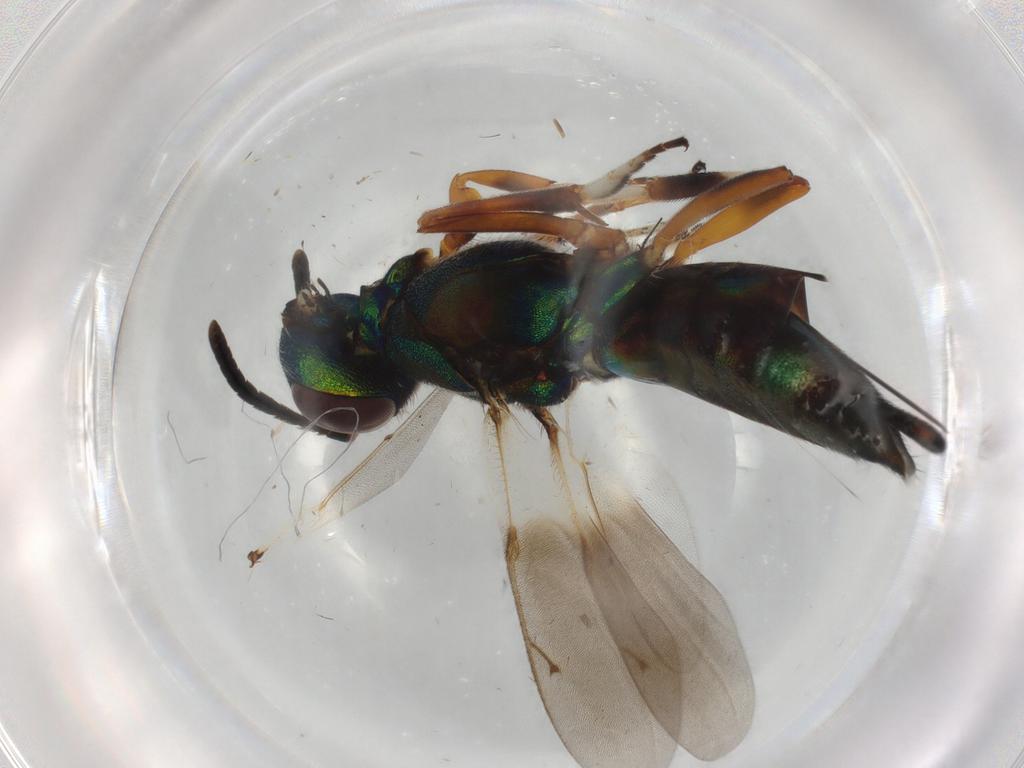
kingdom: Animalia
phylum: Arthropoda
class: Insecta
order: Hymenoptera
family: Eupelmidae
